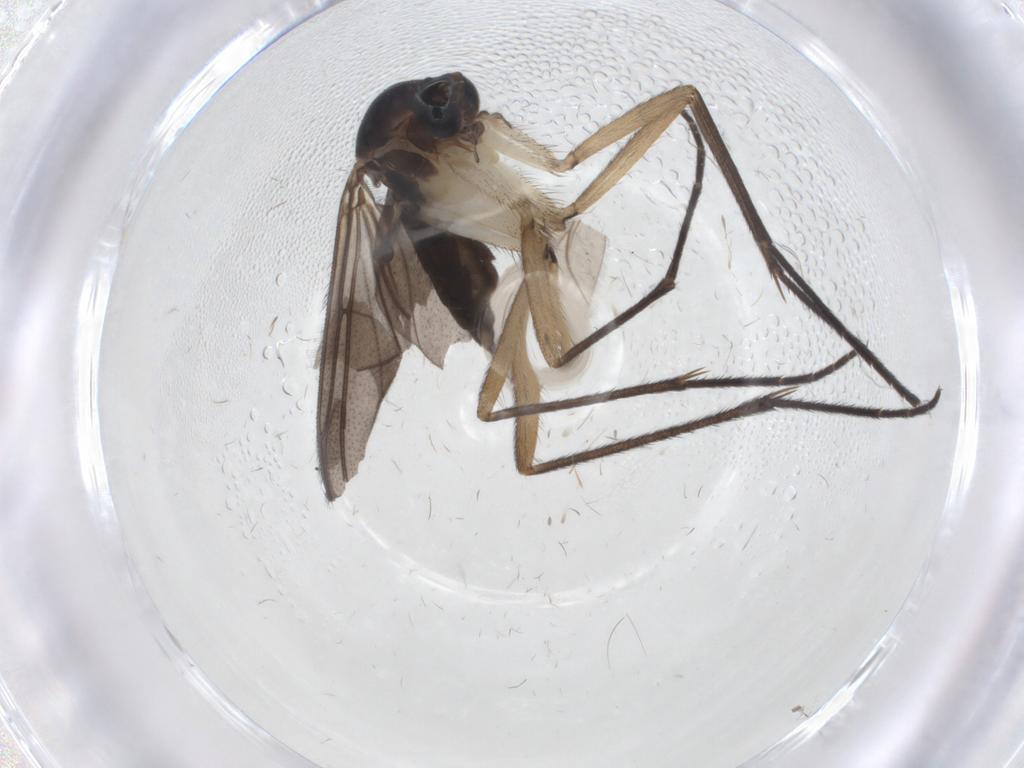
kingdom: Animalia
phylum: Arthropoda
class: Insecta
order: Diptera
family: Sciaridae
